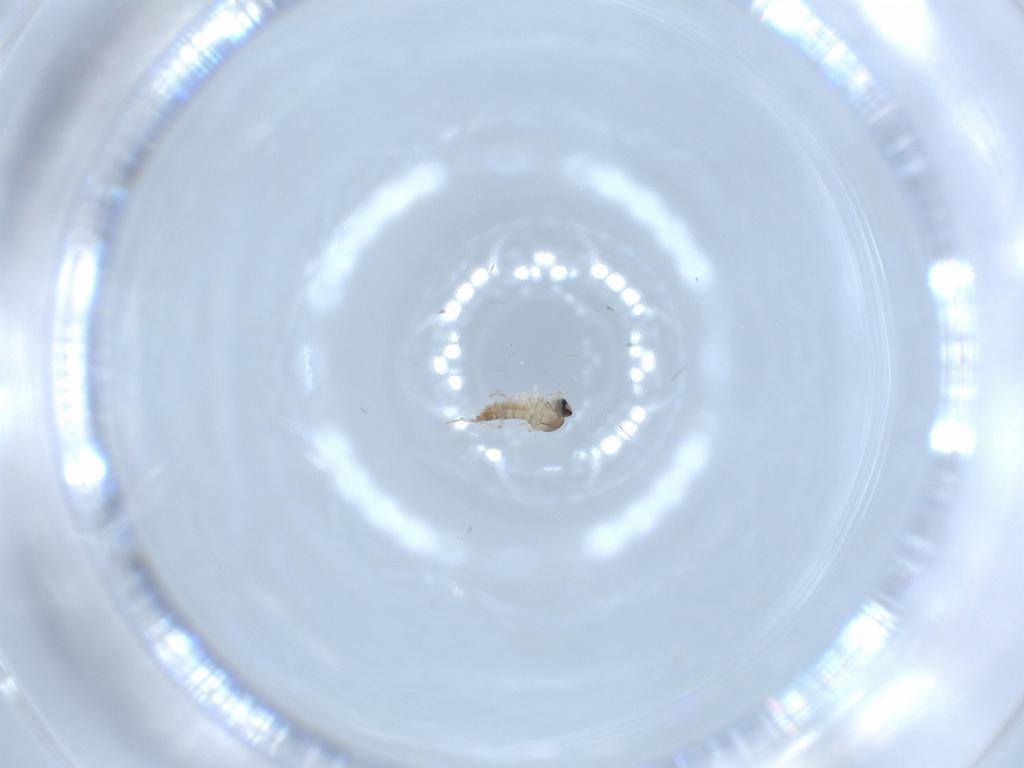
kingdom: Animalia
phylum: Arthropoda
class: Insecta
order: Diptera
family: Cecidomyiidae
